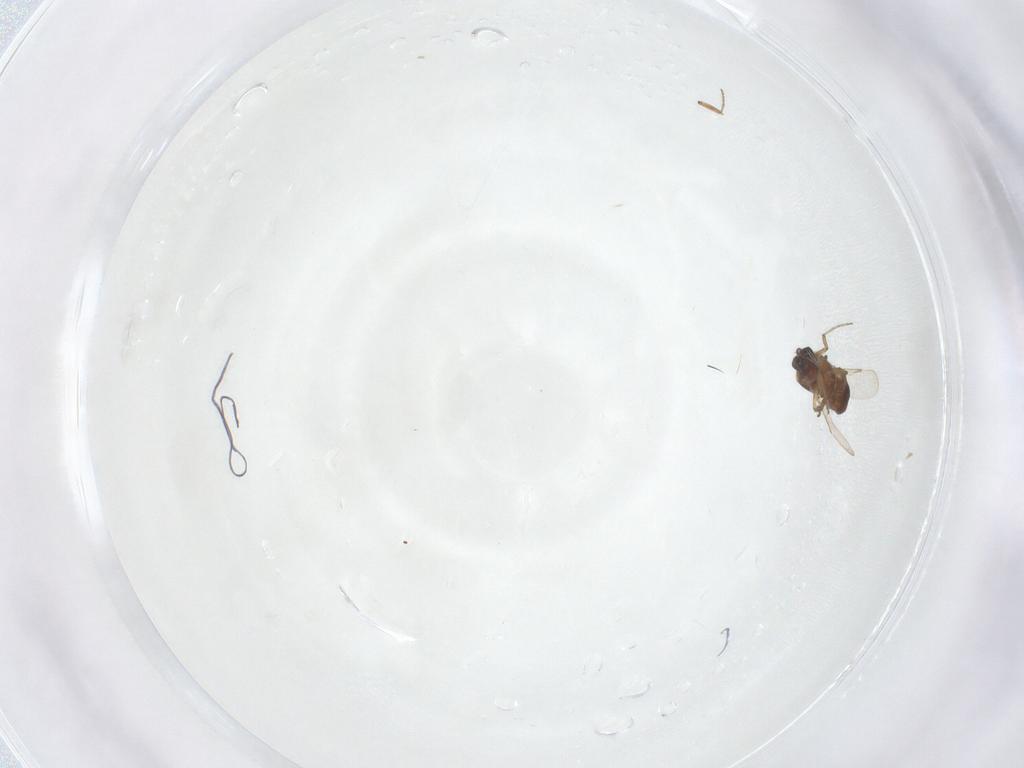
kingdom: Animalia
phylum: Arthropoda
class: Insecta
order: Diptera
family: Ceratopogonidae
